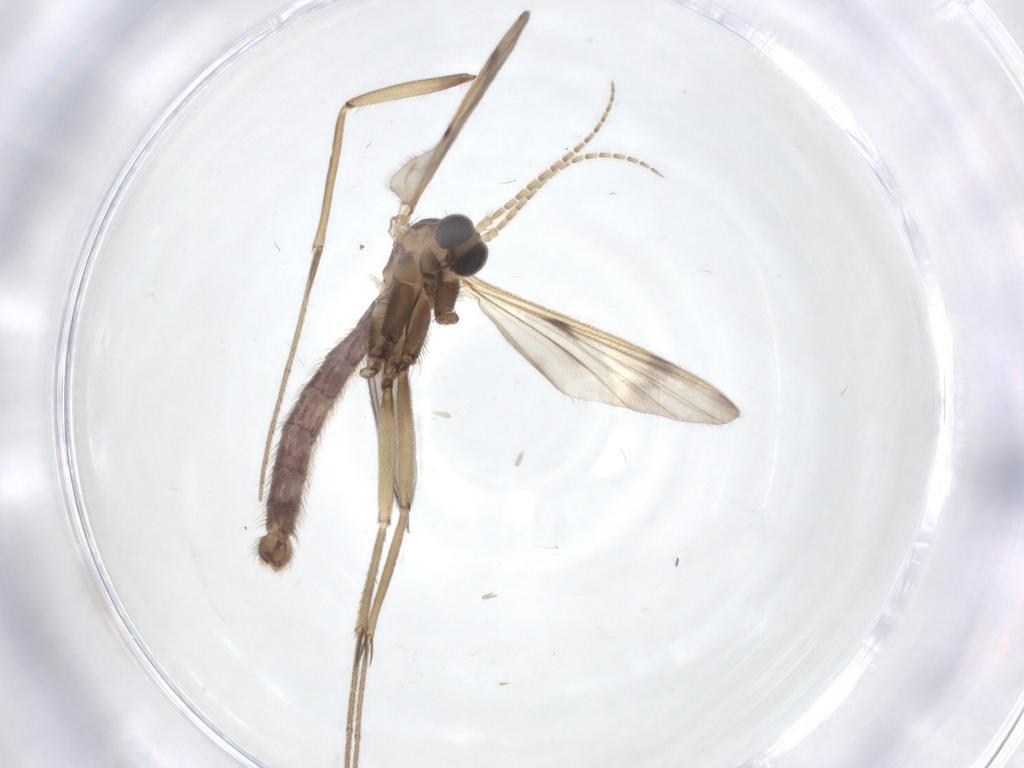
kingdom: Animalia
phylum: Arthropoda
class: Insecta
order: Diptera
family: Mycetophilidae
